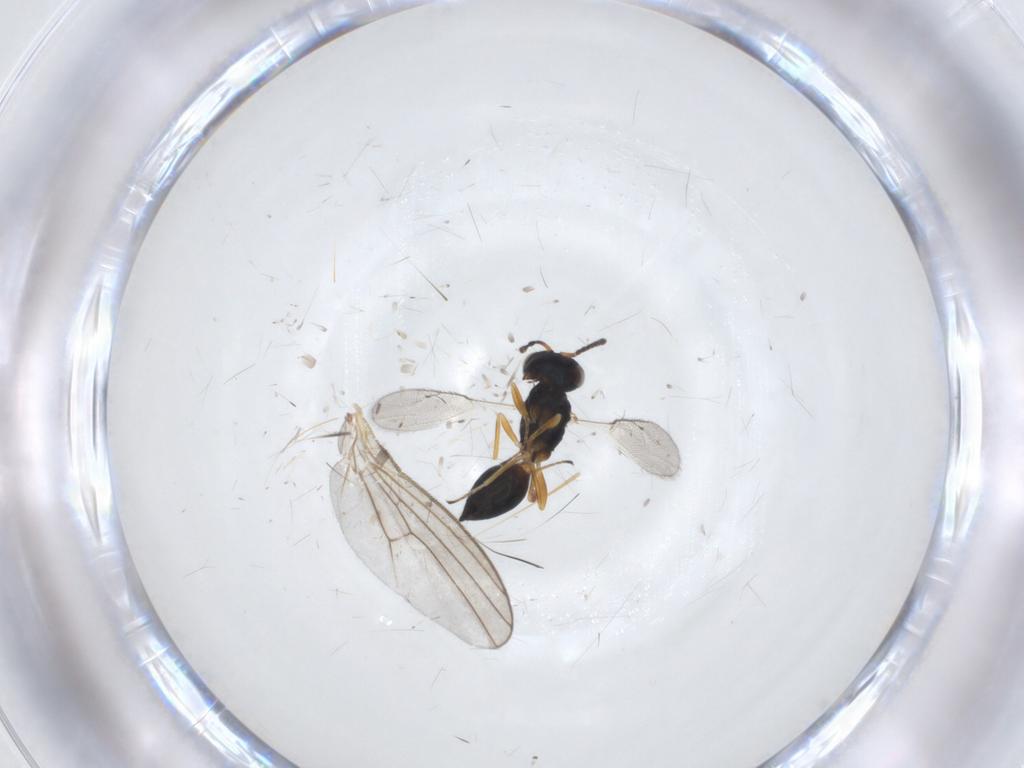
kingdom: Animalia
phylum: Arthropoda
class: Insecta
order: Hymenoptera
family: Pteromalidae
